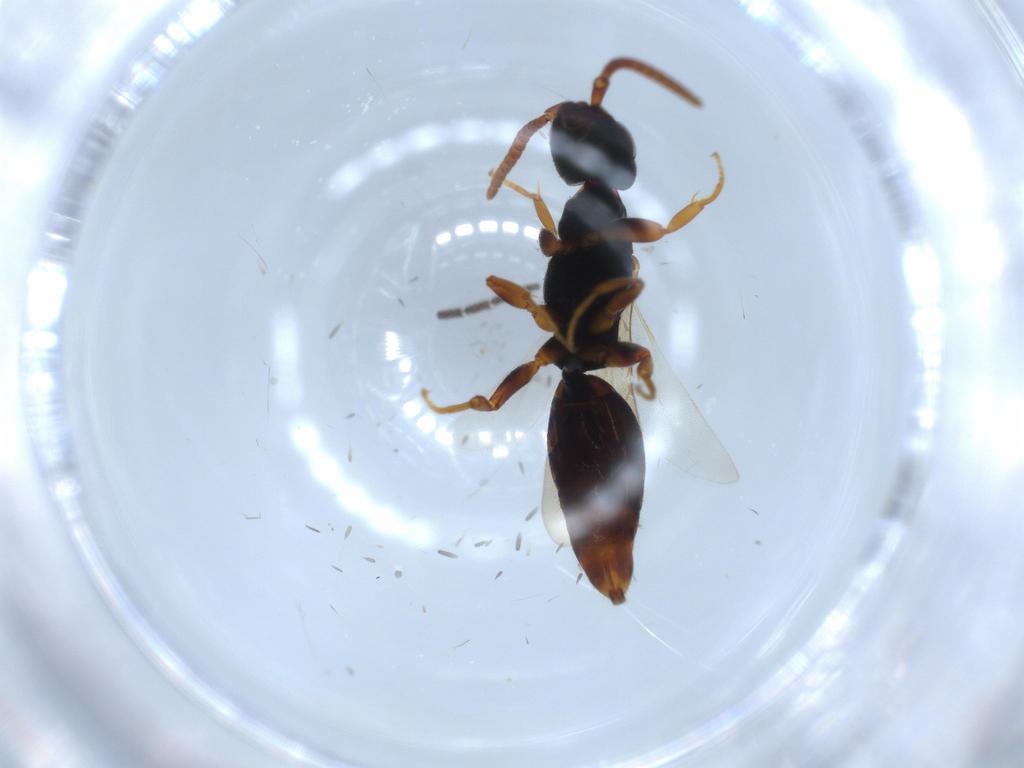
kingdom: Animalia
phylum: Arthropoda
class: Insecta
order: Hymenoptera
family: Bethylidae
